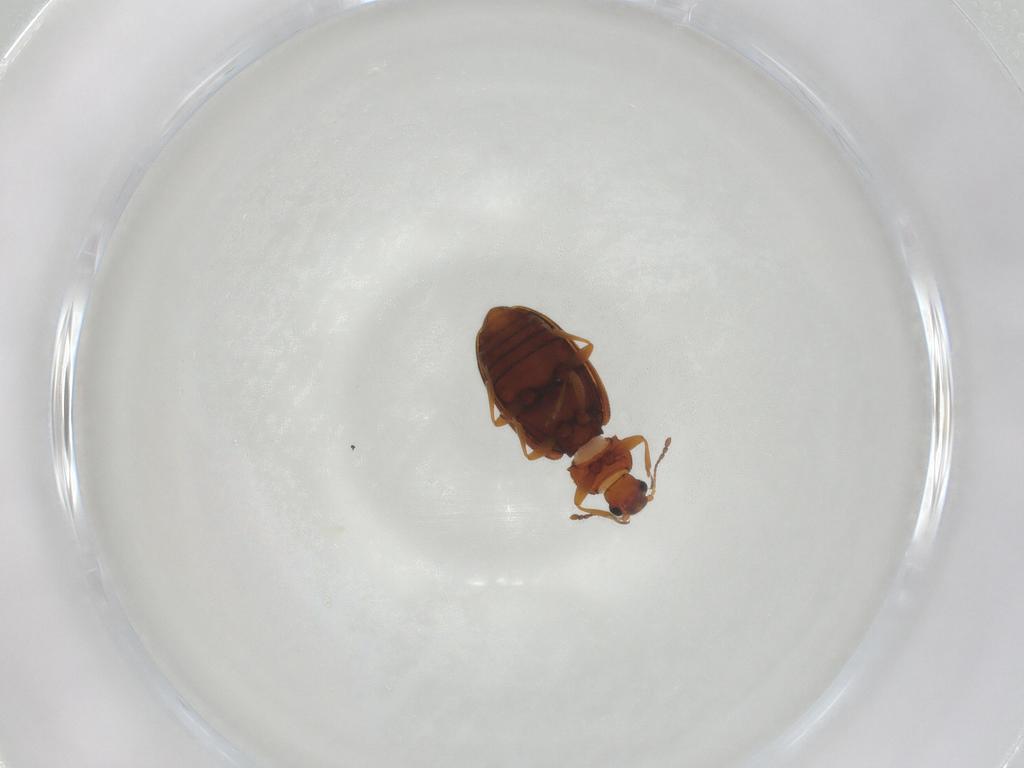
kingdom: Animalia
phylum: Arthropoda
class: Insecta
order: Coleoptera
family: Latridiidae
